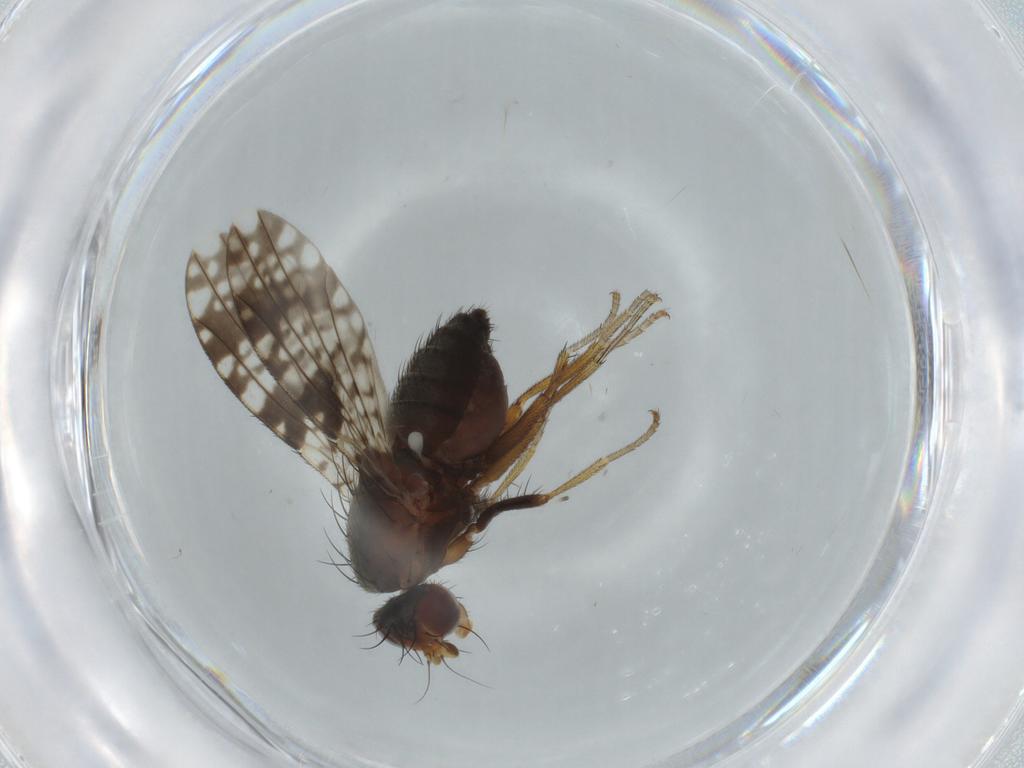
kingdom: Animalia
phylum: Arthropoda
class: Insecta
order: Diptera
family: Tephritidae
